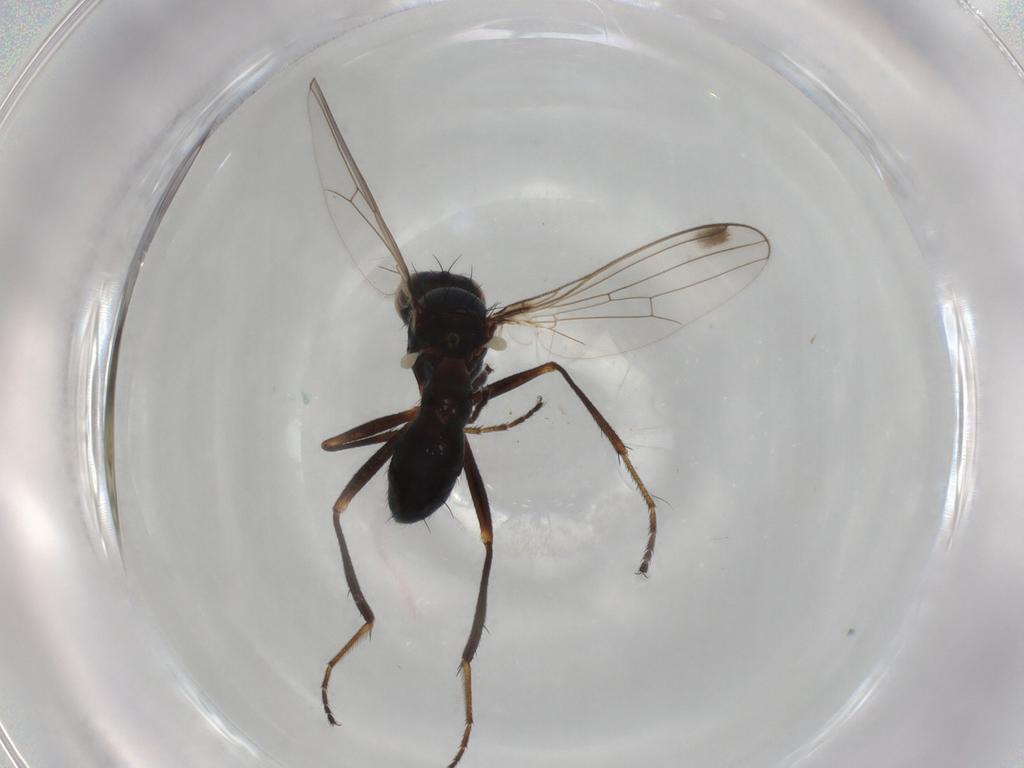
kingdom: Animalia
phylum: Arthropoda
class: Insecta
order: Diptera
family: Sepsidae
